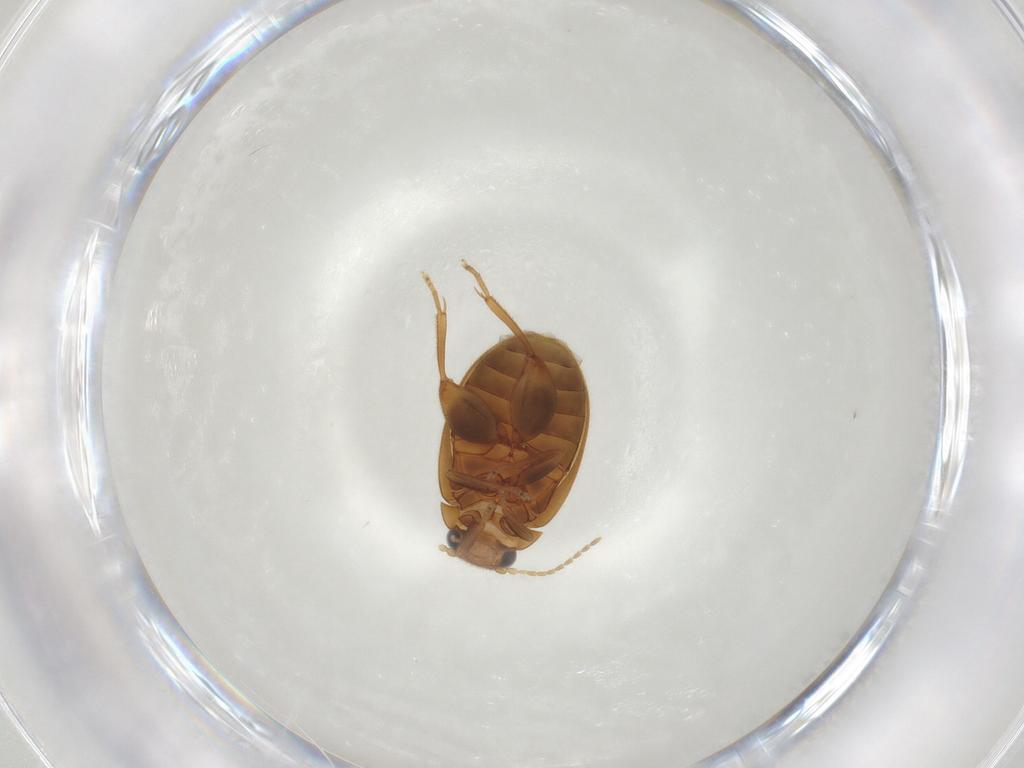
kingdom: Animalia
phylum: Arthropoda
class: Insecta
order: Coleoptera
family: Scirtidae
